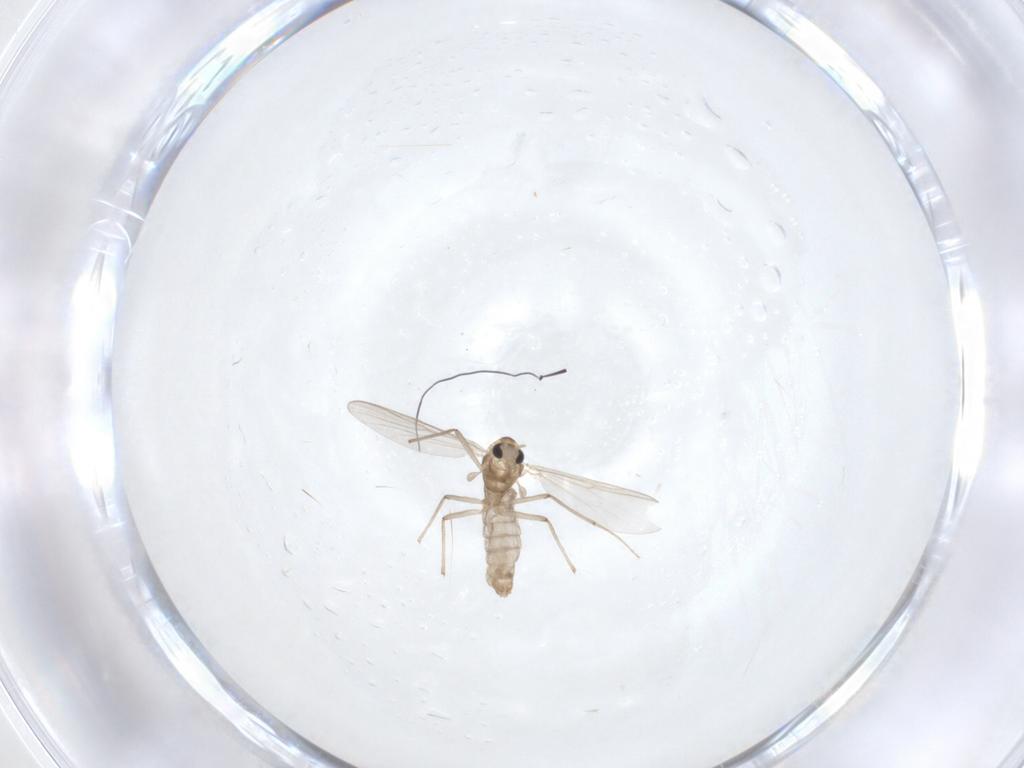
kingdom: Animalia
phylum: Arthropoda
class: Insecta
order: Diptera
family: Chironomidae
